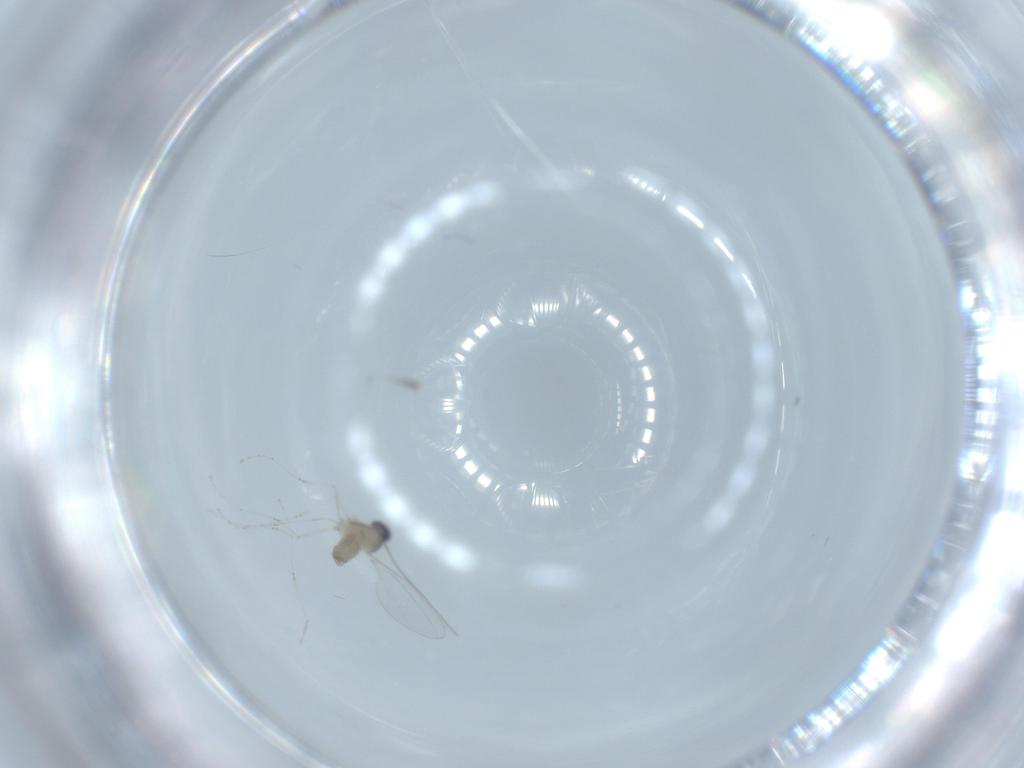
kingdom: Animalia
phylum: Arthropoda
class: Insecta
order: Diptera
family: Cecidomyiidae
